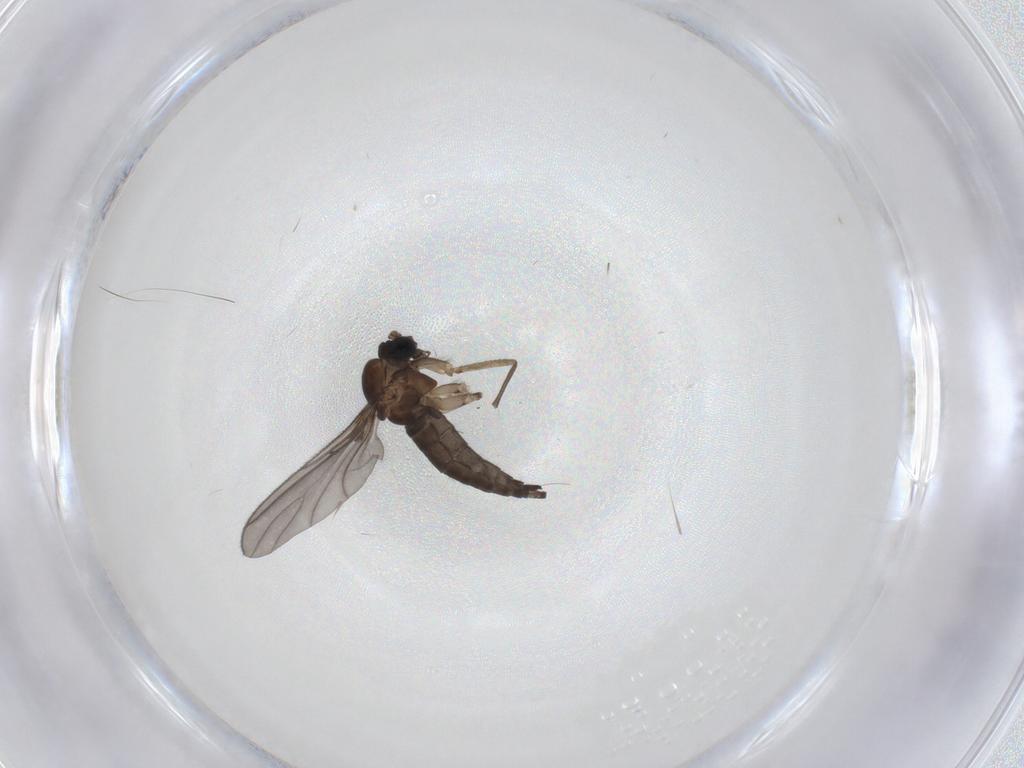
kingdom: Animalia
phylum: Arthropoda
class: Insecta
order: Diptera
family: Sciaridae
